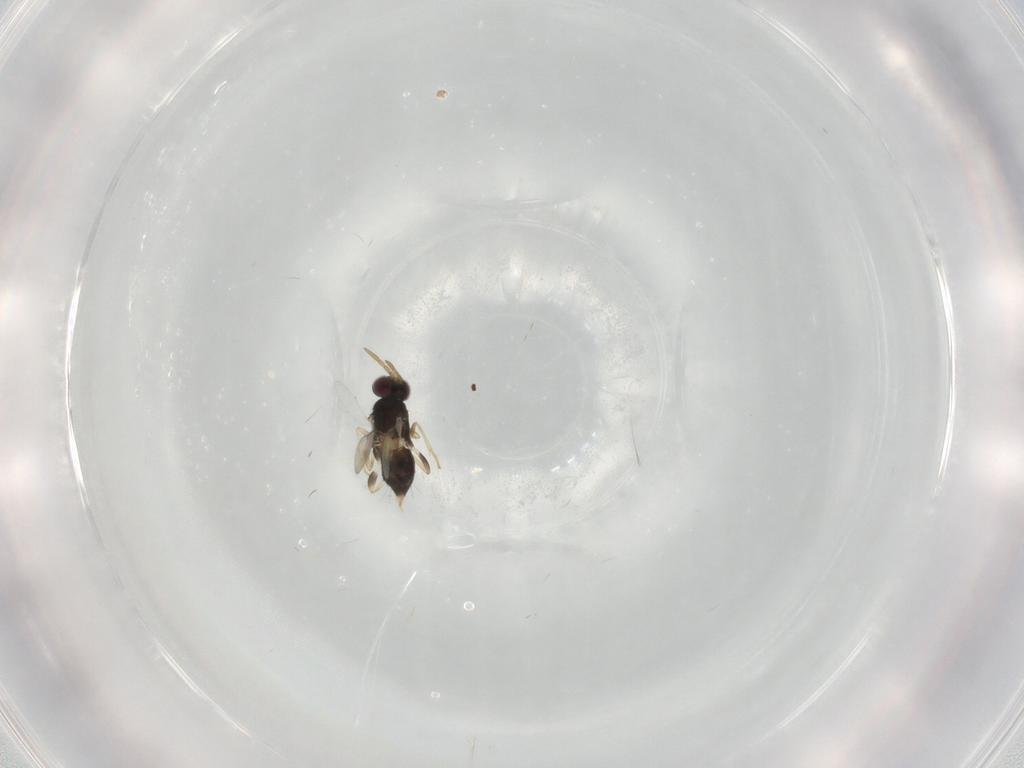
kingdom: Animalia
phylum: Arthropoda
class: Insecta
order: Hymenoptera
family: Aphelinidae
